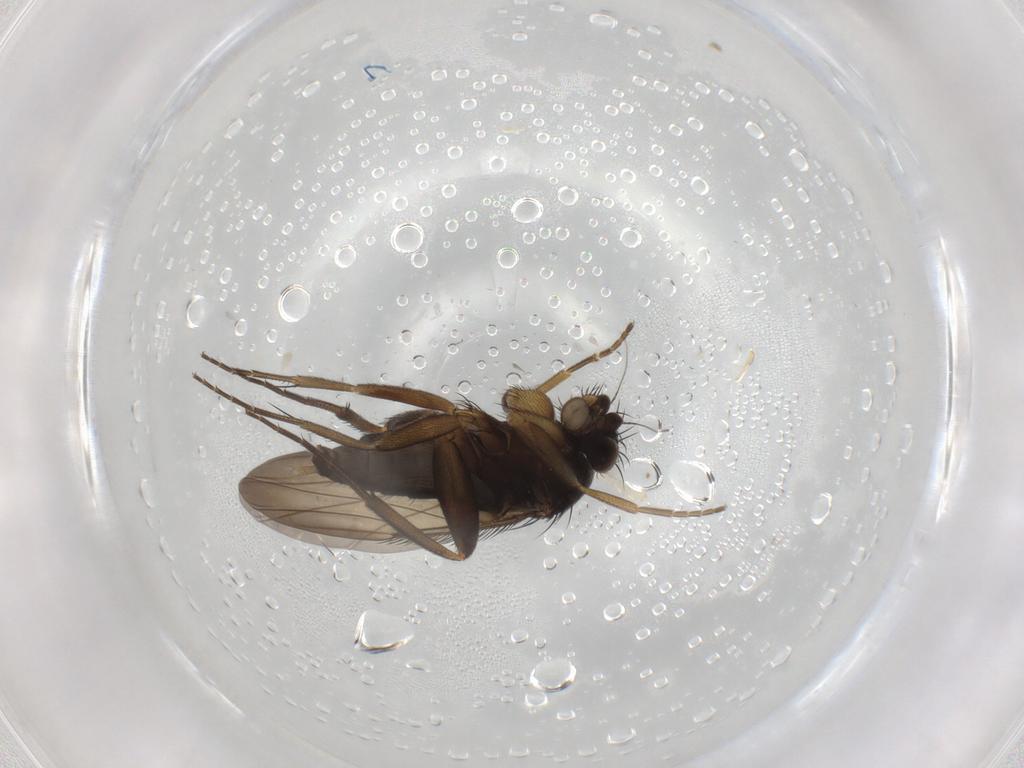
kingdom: Animalia
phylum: Arthropoda
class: Insecta
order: Diptera
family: Phoridae
